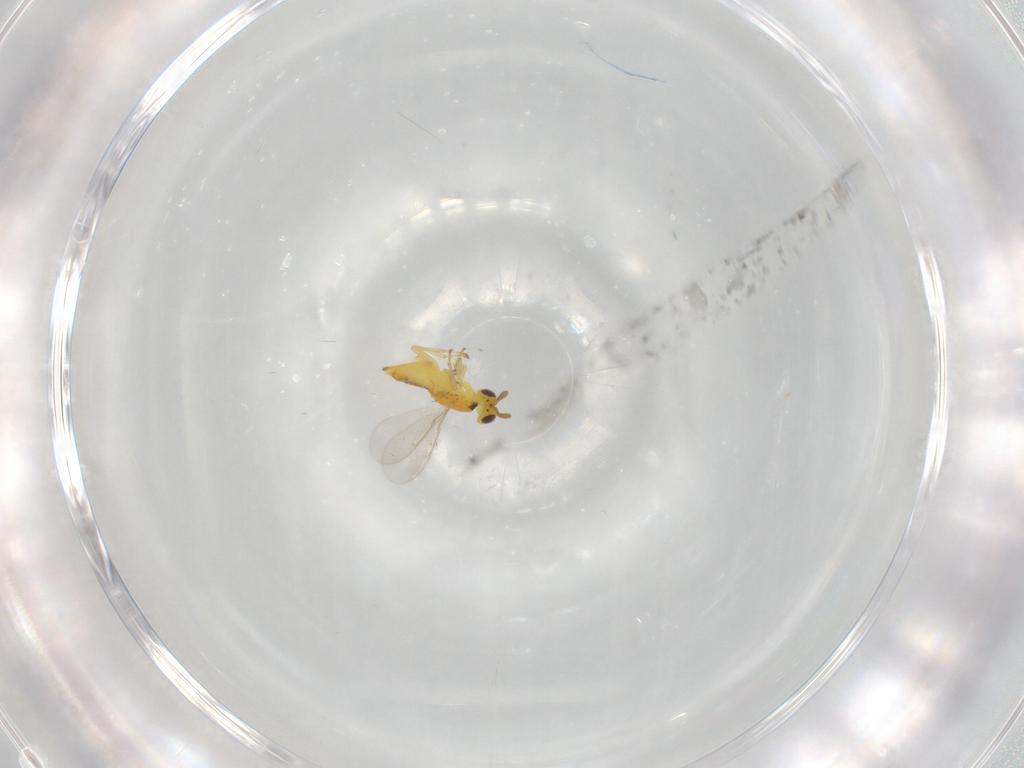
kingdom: Animalia
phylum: Arthropoda
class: Insecta
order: Hymenoptera
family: Aphelinidae
